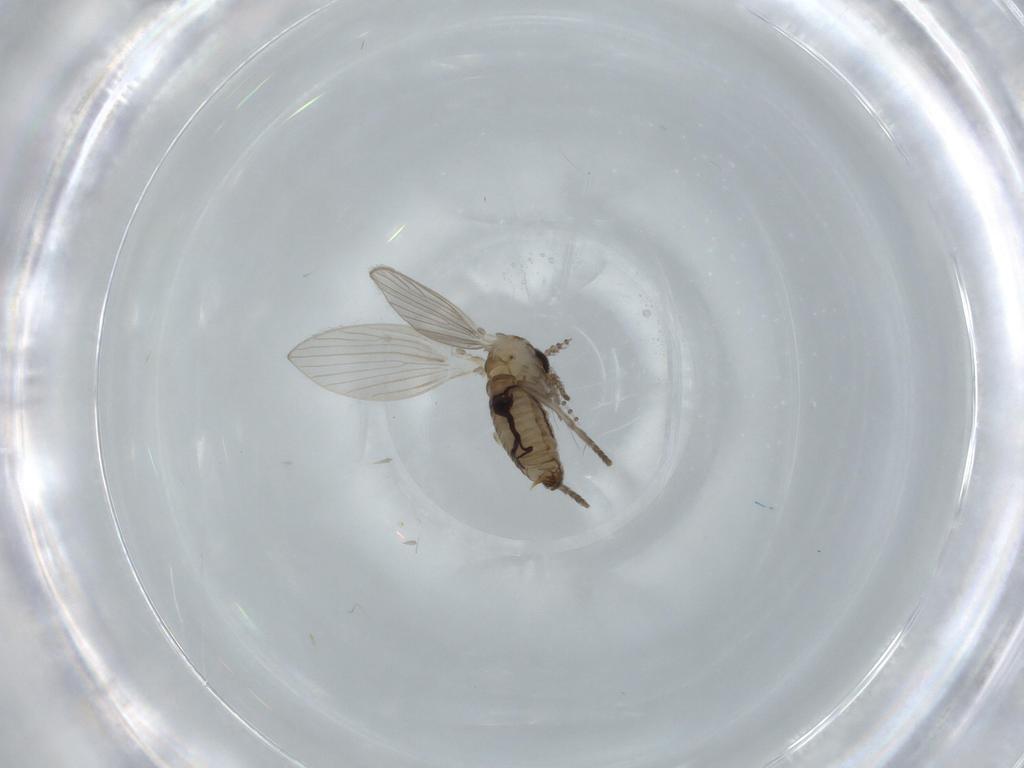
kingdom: Animalia
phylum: Arthropoda
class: Insecta
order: Diptera
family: Psychodidae
